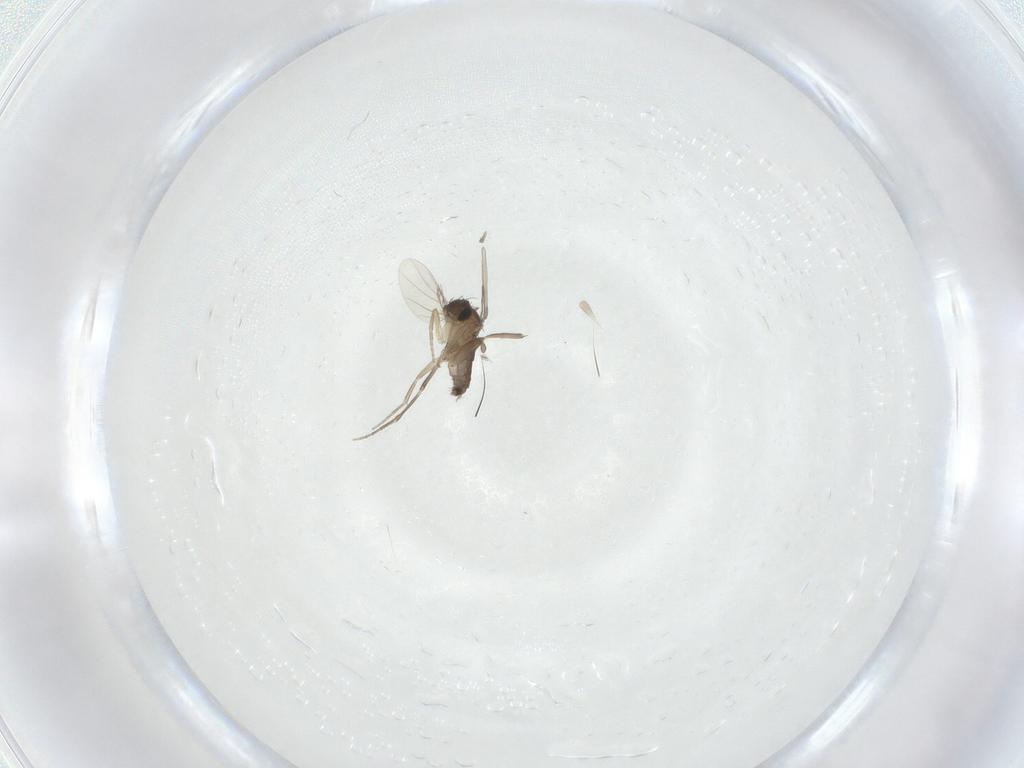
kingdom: Animalia
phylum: Arthropoda
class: Insecta
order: Diptera
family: Phoridae
